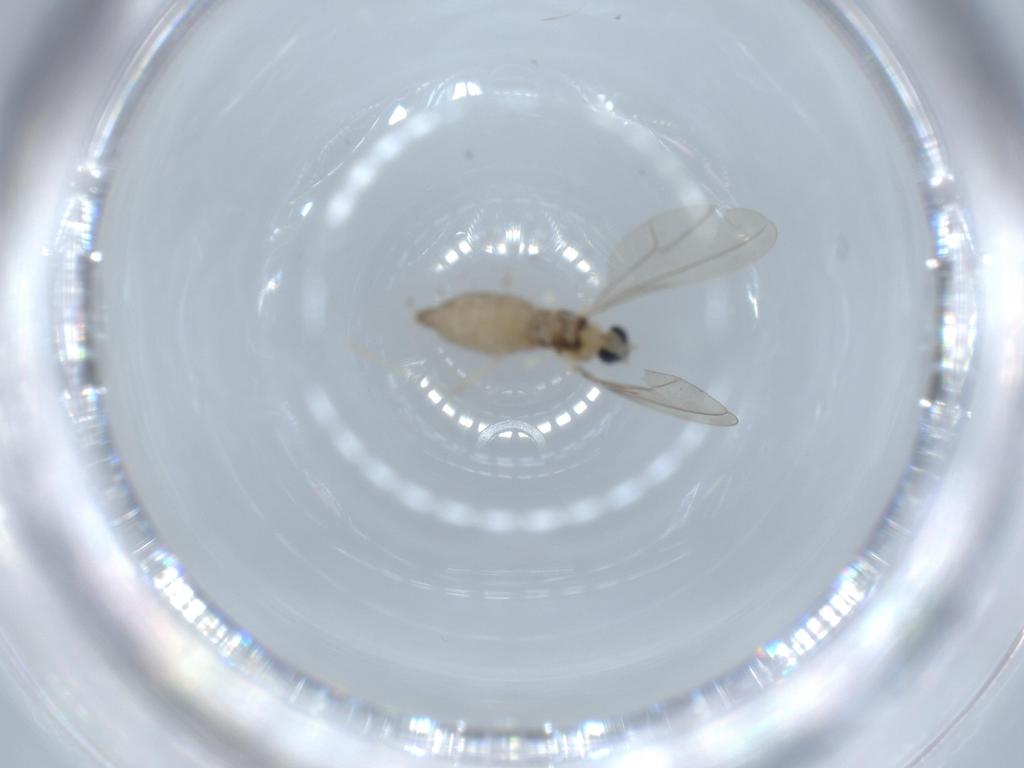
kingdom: Animalia
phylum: Arthropoda
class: Insecta
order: Diptera
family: Cecidomyiidae
